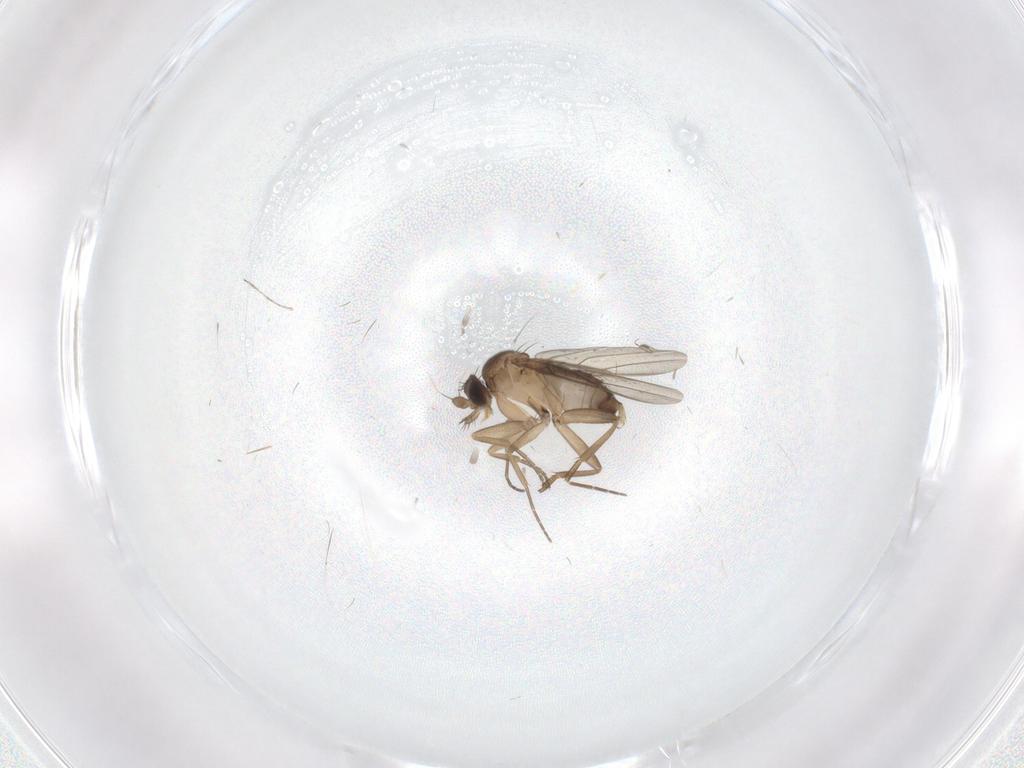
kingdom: Animalia
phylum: Arthropoda
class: Insecta
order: Diptera
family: Phoridae
